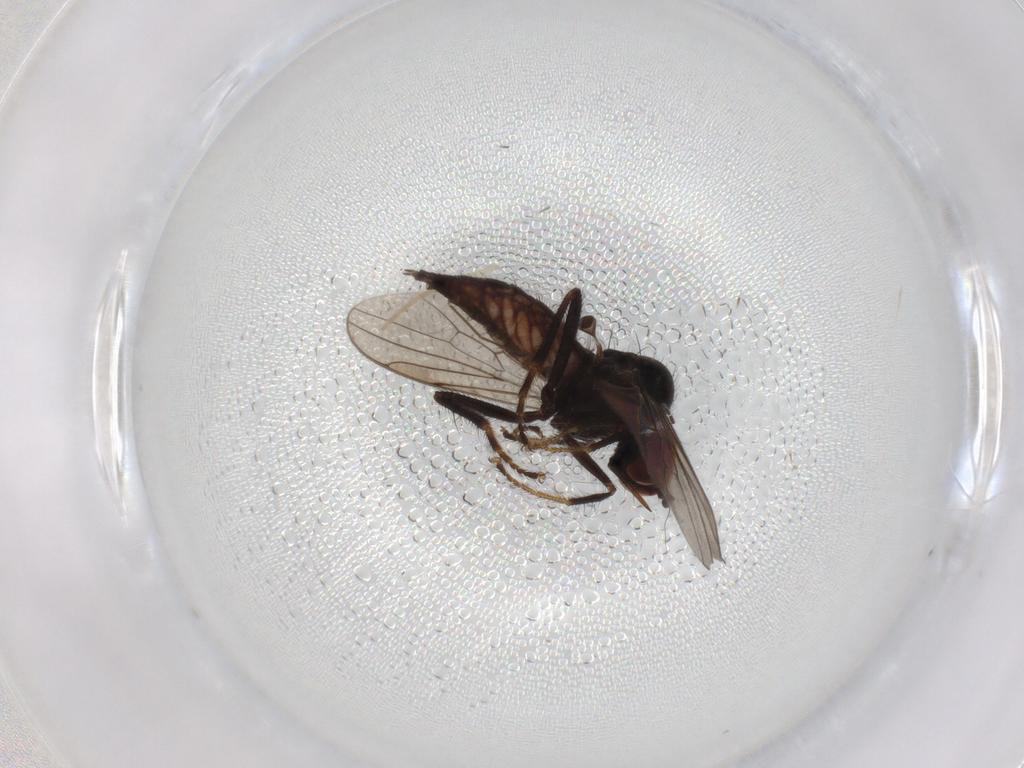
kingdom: Animalia
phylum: Arthropoda
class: Insecta
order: Diptera
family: Hybotidae
